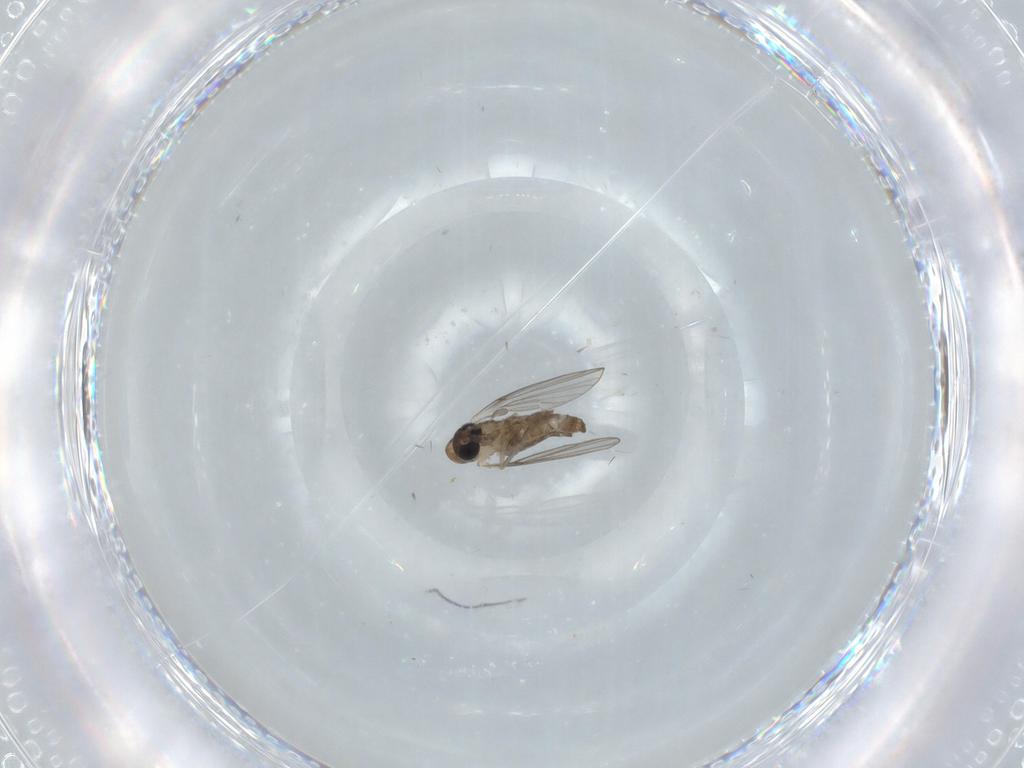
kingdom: Animalia
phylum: Arthropoda
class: Insecta
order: Diptera
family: Psychodidae
